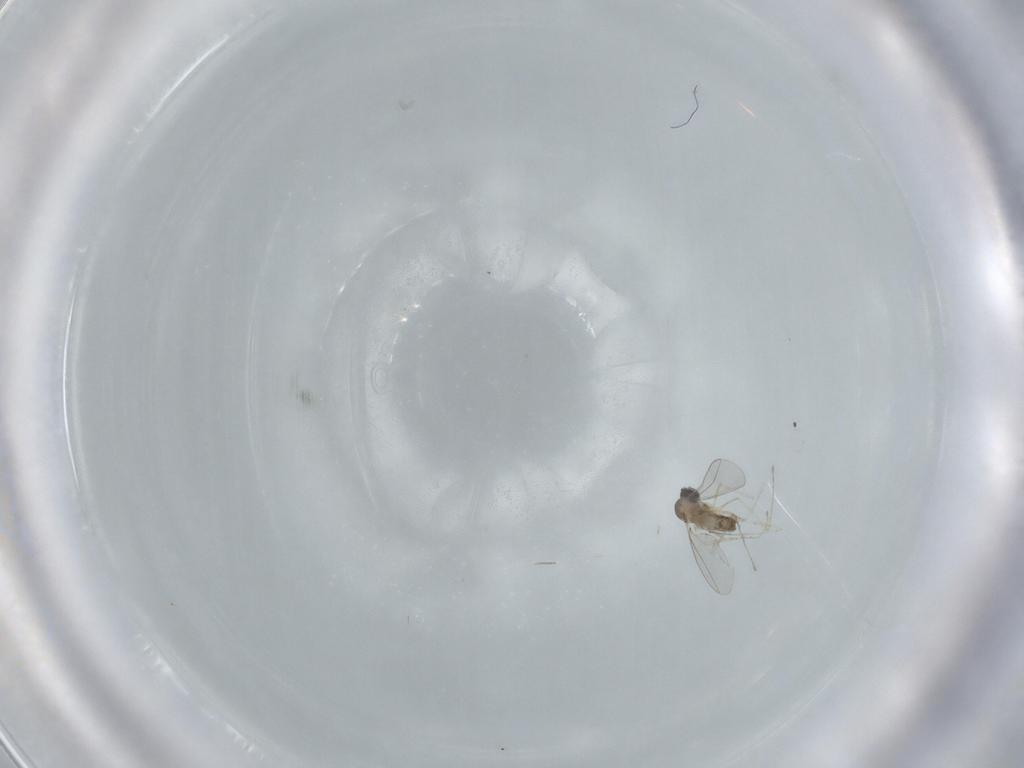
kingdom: Animalia
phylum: Arthropoda
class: Insecta
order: Diptera
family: Cecidomyiidae
